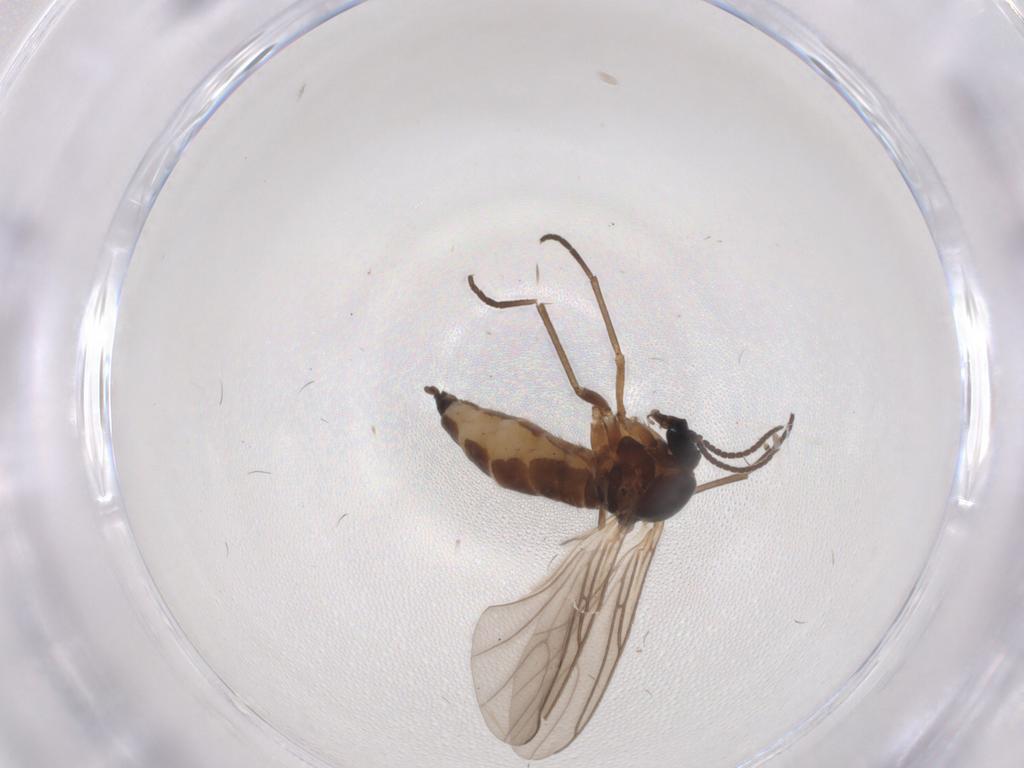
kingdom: Animalia
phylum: Arthropoda
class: Insecta
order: Diptera
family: Sciaridae
